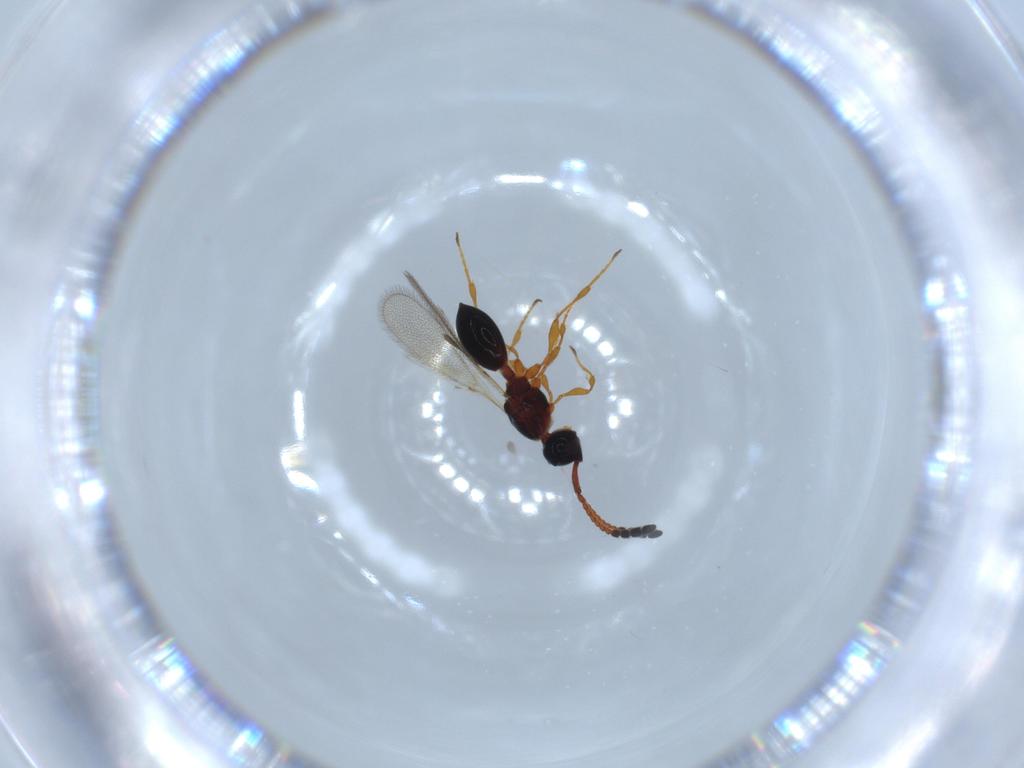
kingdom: Animalia
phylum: Arthropoda
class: Insecta
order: Hymenoptera
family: Diapriidae
